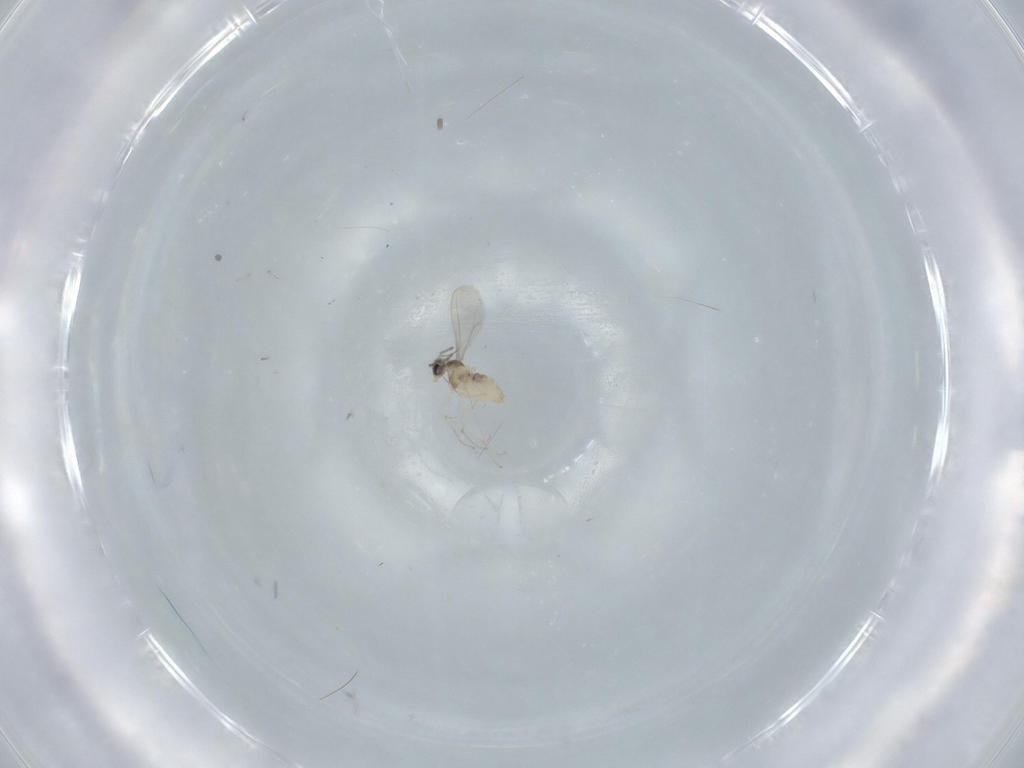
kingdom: Animalia
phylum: Arthropoda
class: Insecta
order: Diptera
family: Cecidomyiidae
